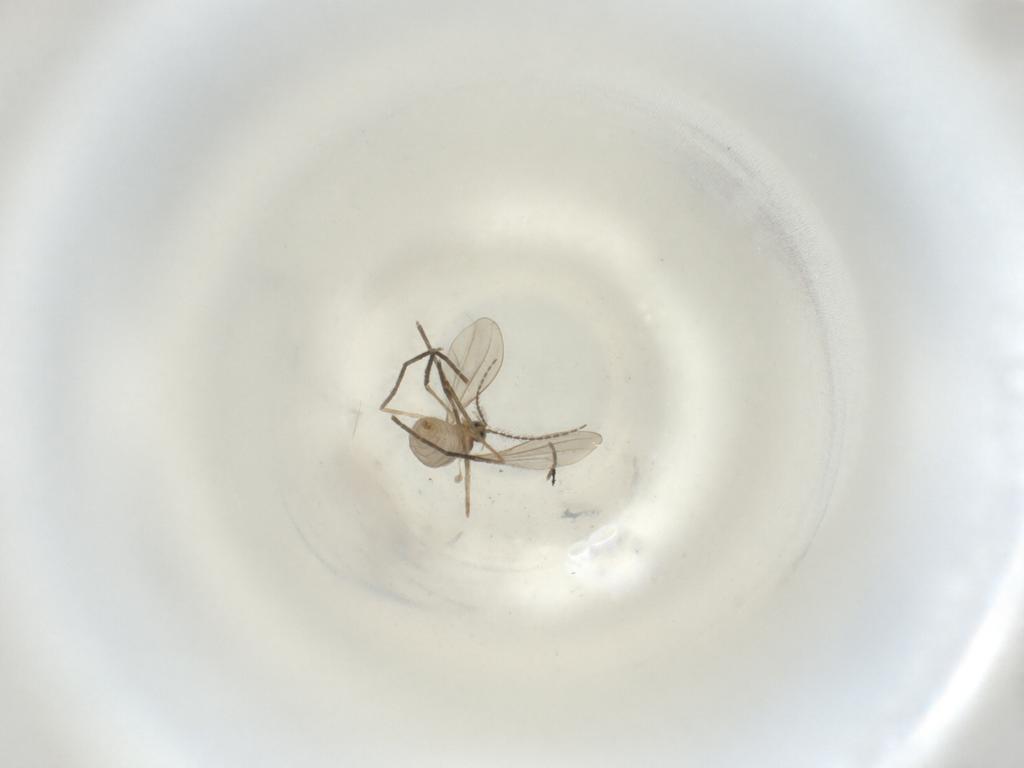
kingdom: Animalia
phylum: Arthropoda
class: Insecta
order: Diptera
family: Cecidomyiidae
